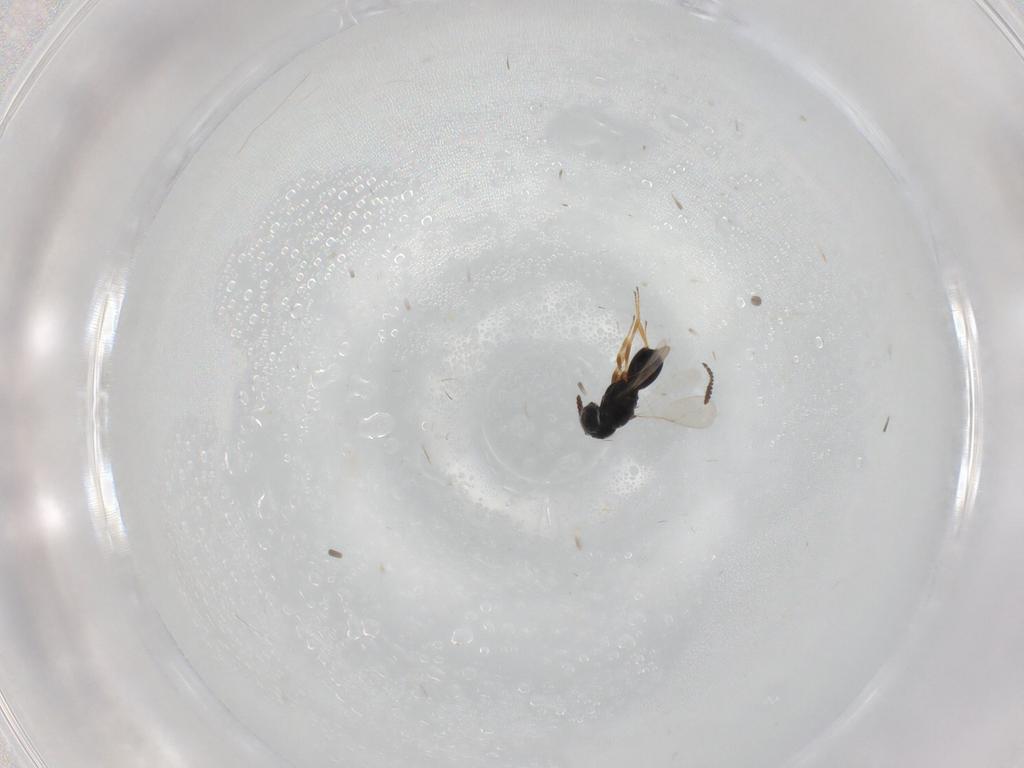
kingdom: Animalia
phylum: Arthropoda
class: Insecta
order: Hymenoptera
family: Scelionidae
